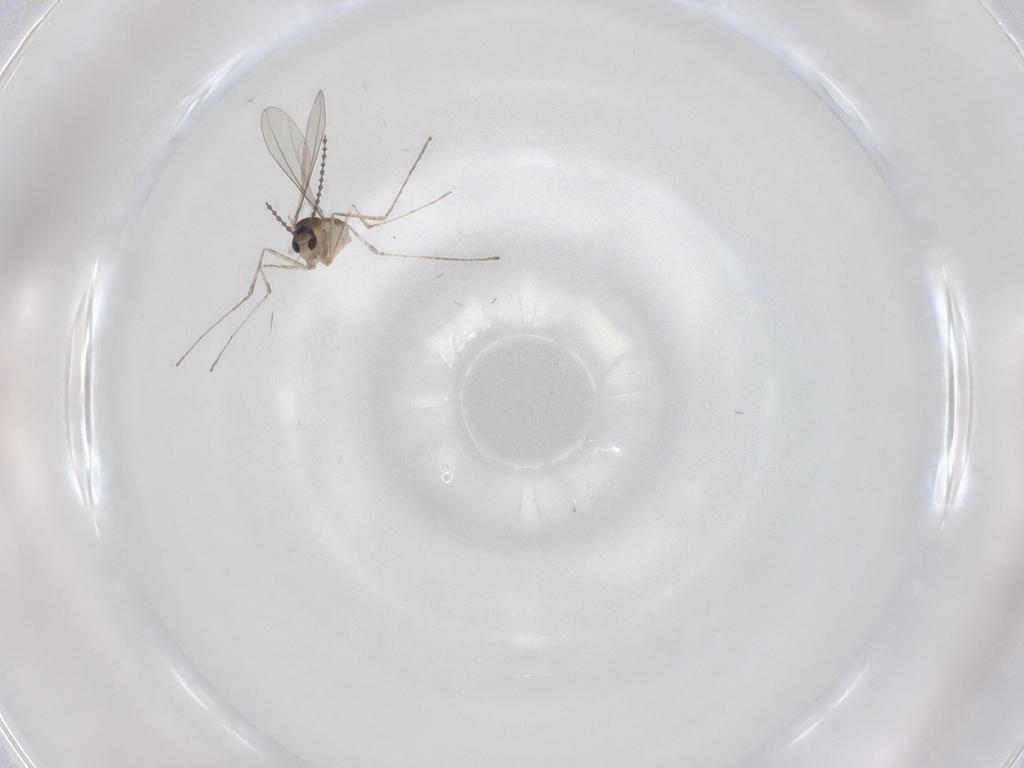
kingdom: Animalia
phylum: Arthropoda
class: Insecta
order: Diptera
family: Cecidomyiidae
